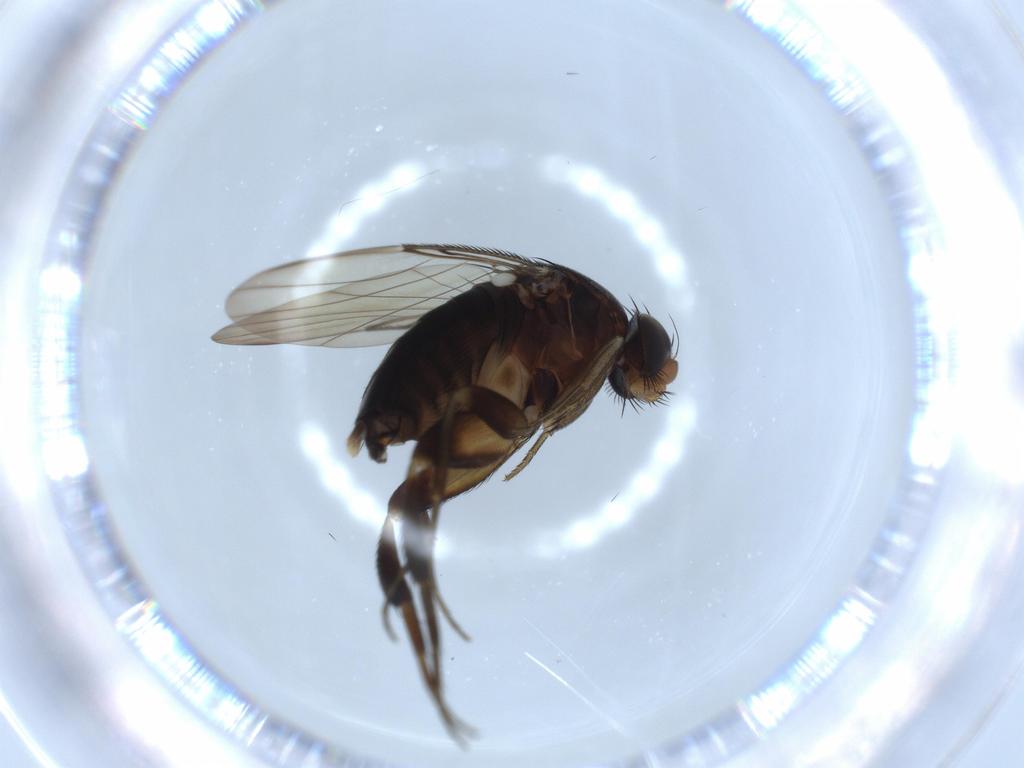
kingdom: Animalia
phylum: Arthropoda
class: Insecta
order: Diptera
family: Phoridae
